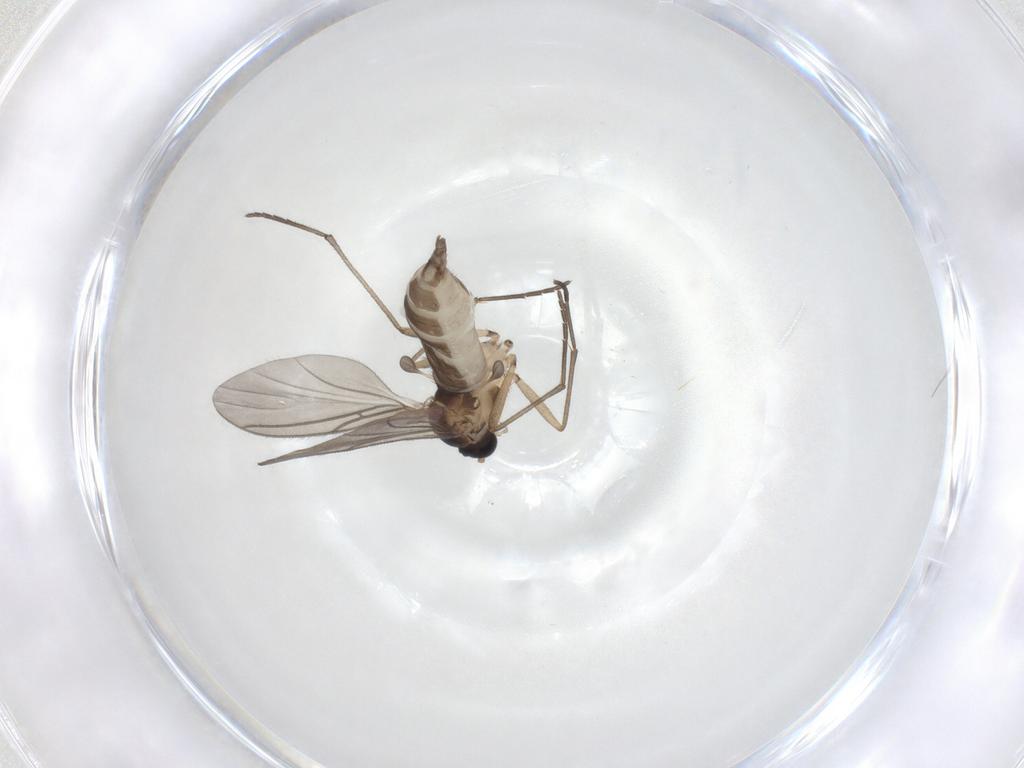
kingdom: Animalia
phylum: Arthropoda
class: Insecta
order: Diptera
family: Sciaridae
